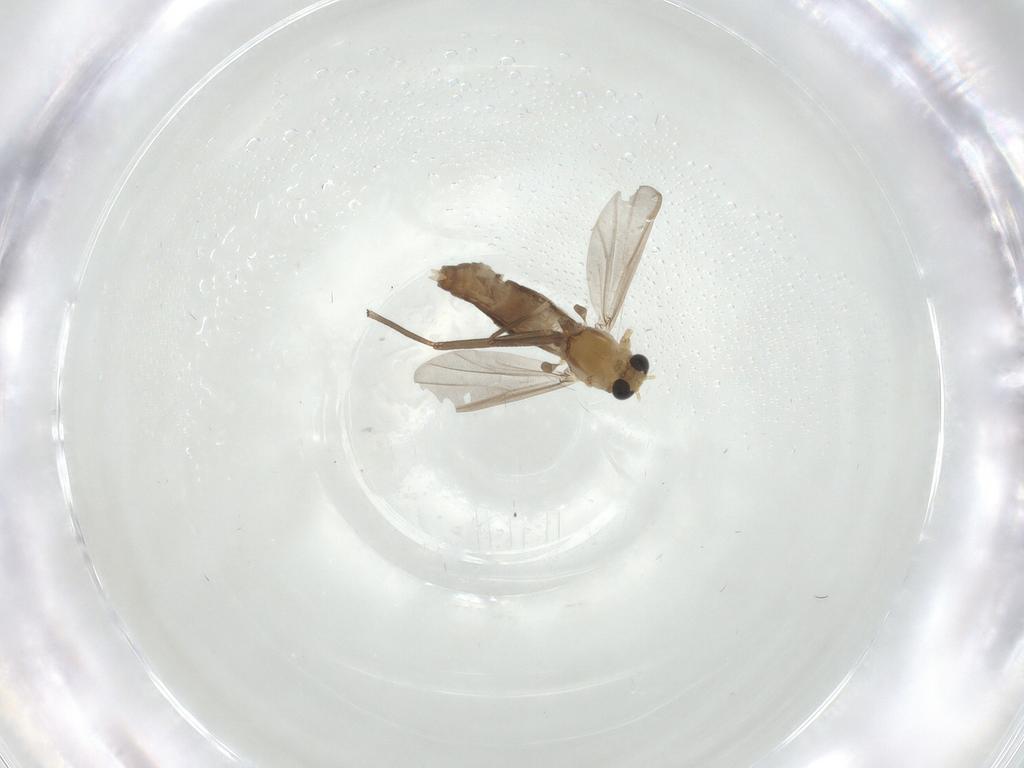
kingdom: Animalia
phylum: Arthropoda
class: Insecta
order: Diptera
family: Chironomidae
